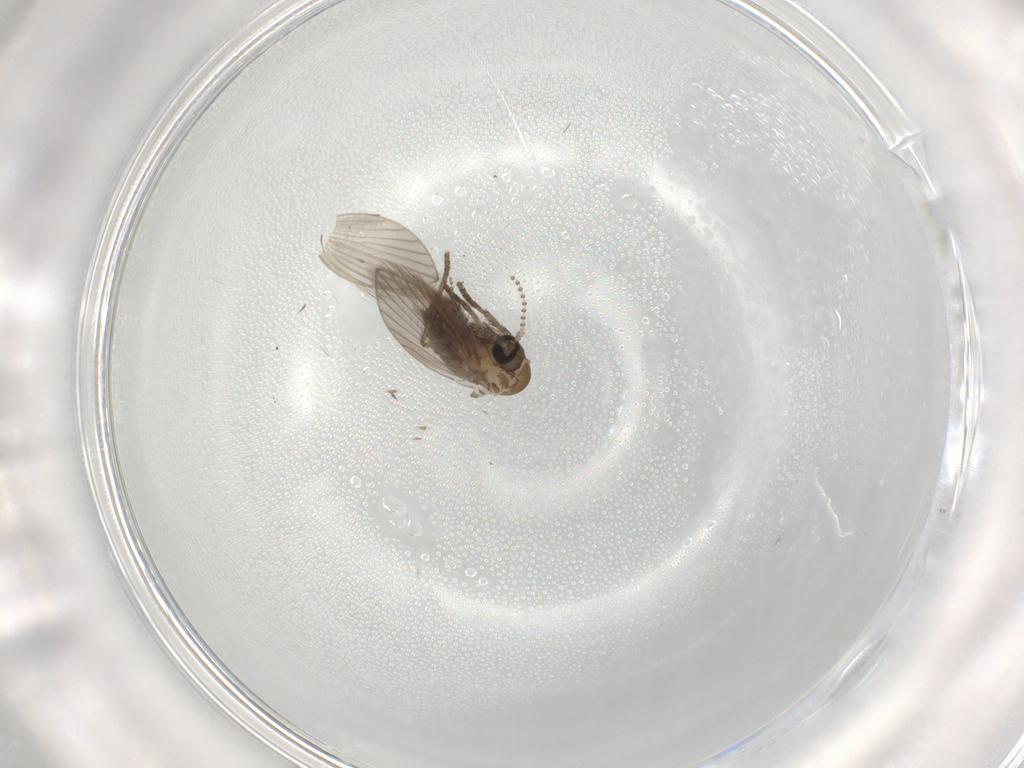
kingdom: Animalia
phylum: Arthropoda
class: Insecta
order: Diptera
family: Psychodidae
